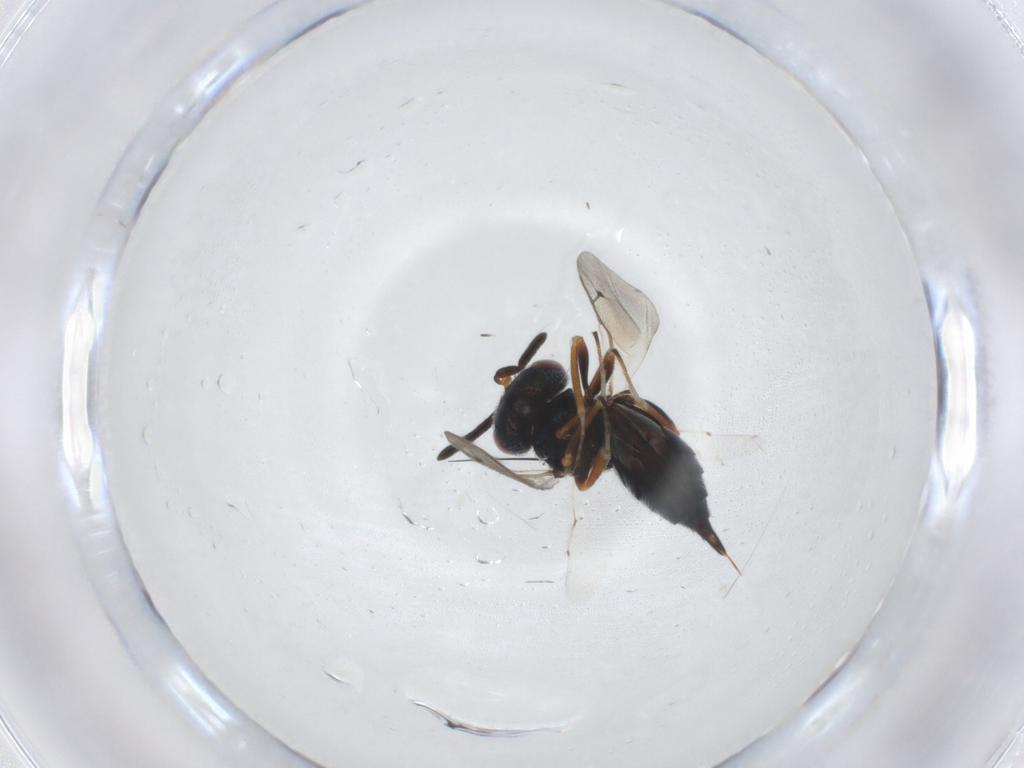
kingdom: Animalia
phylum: Arthropoda
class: Insecta
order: Hymenoptera
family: Pteromalidae
